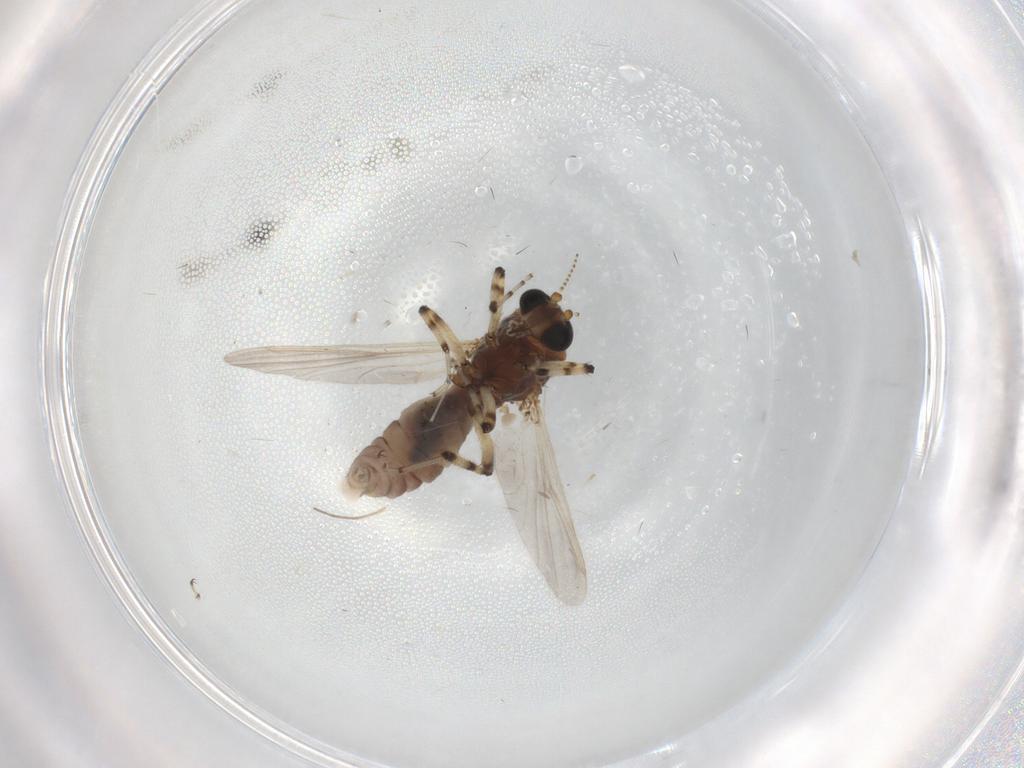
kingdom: Animalia
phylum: Arthropoda
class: Insecta
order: Diptera
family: Ceratopogonidae
